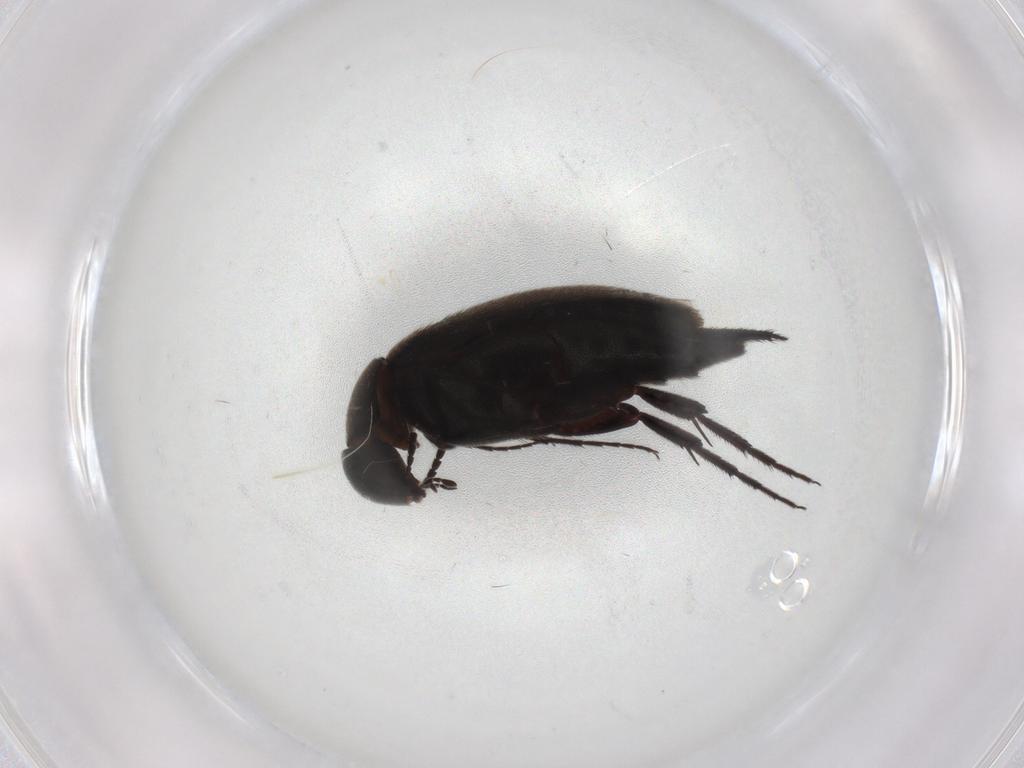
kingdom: Animalia
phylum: Arthropoda
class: Insecta
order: Coleoptera
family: Mordellidae
